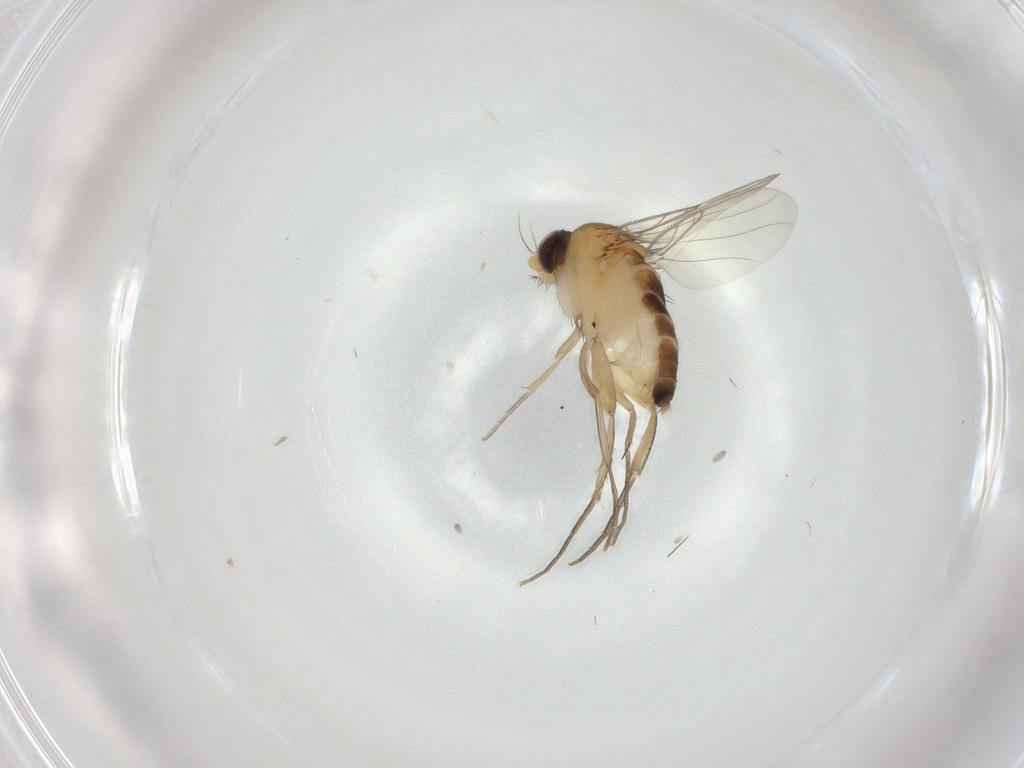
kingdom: Animalia
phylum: Arthropoda
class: Insecta
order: Diptera
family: Phoridae
